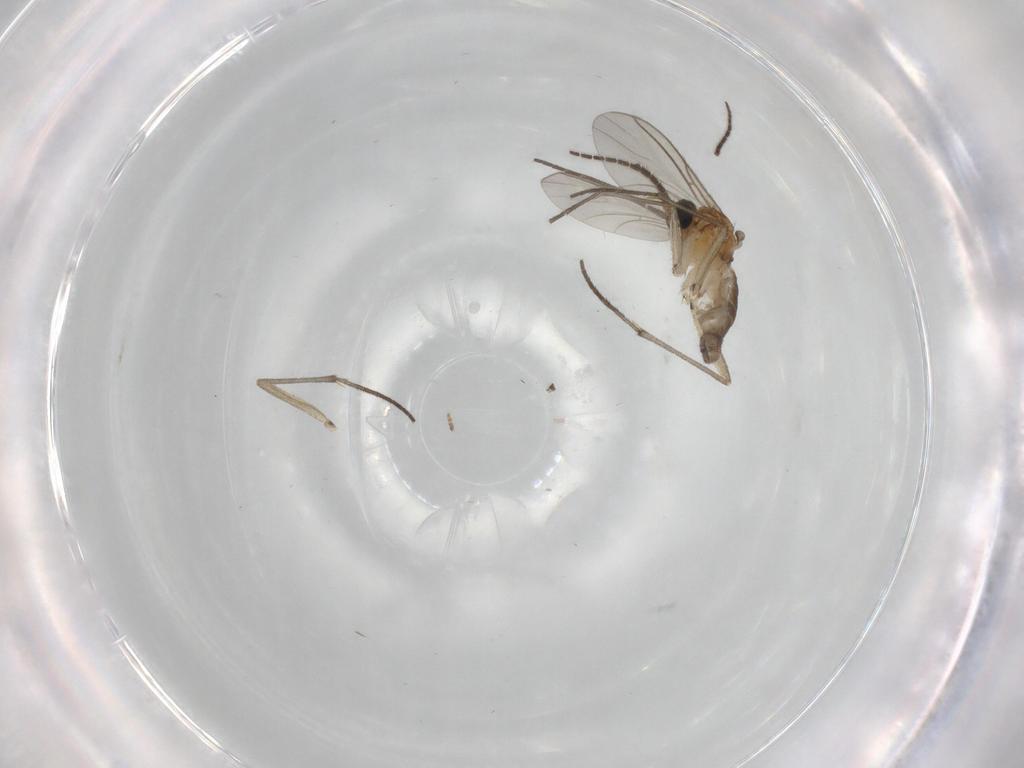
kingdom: Animalia
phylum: Arthropoda
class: Insecta
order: Diptera
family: Sciaridae
